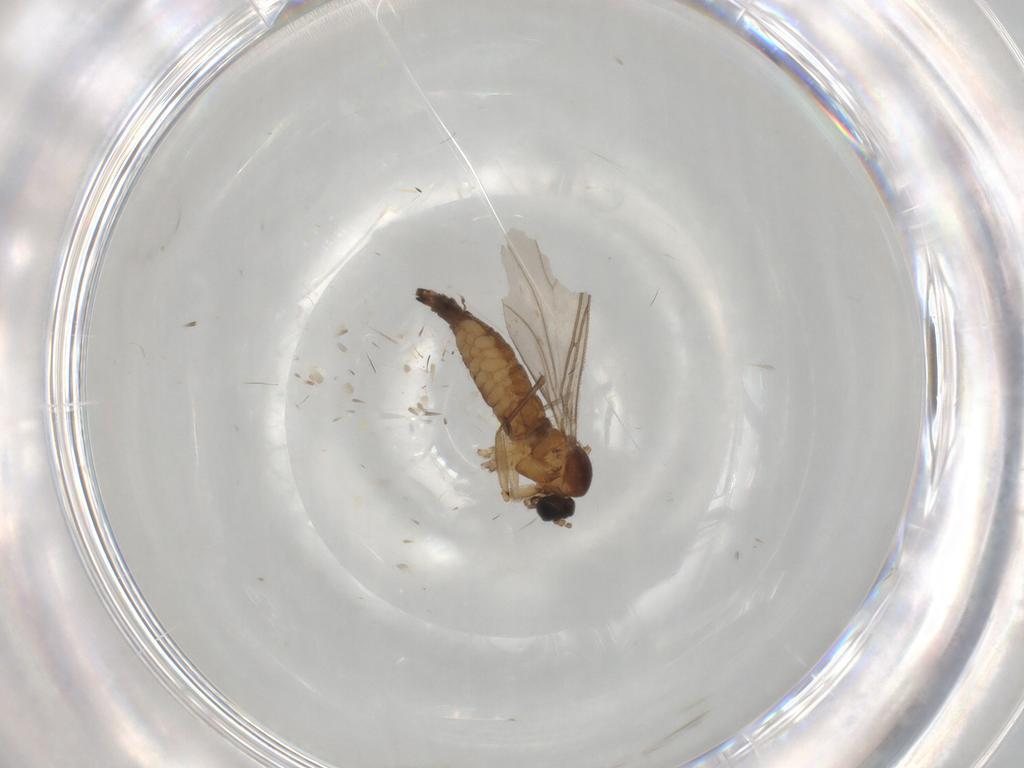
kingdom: Animalia
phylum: Arthropoda
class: Insecta
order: Diptera
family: Sciaridae
